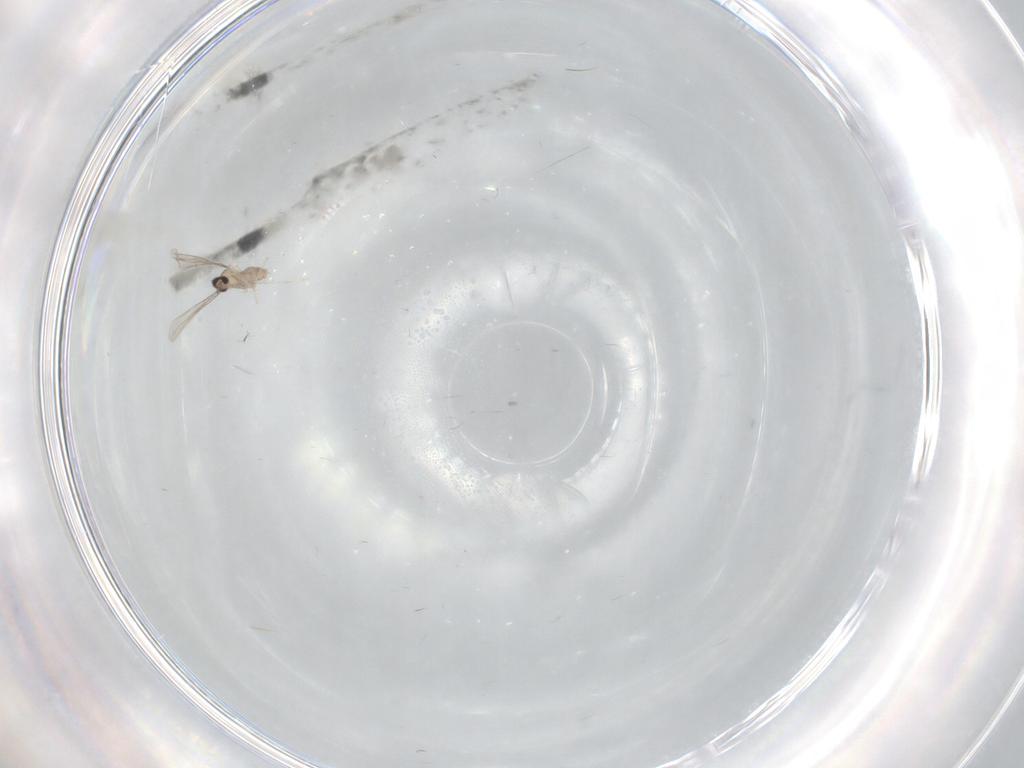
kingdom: Animalia
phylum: Arthropoda
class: Insecta
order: Diptera
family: Cecidomyiidae
